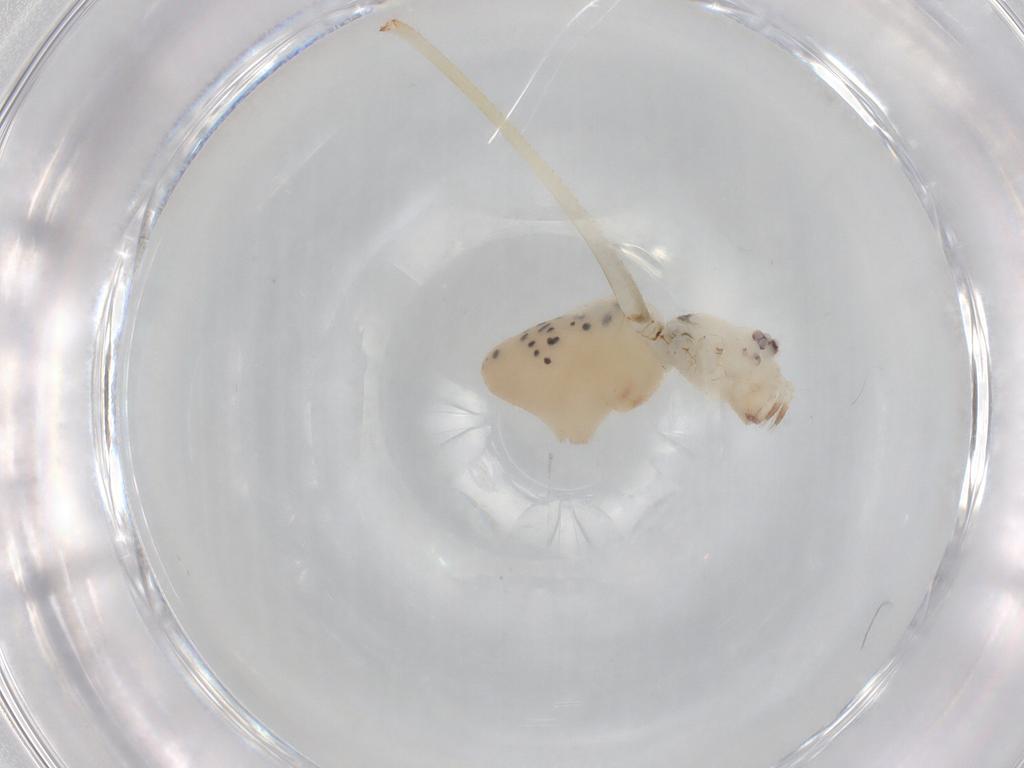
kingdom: Animalia
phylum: Arthropoda
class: Arachnida
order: Araneae
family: Pholcidae
